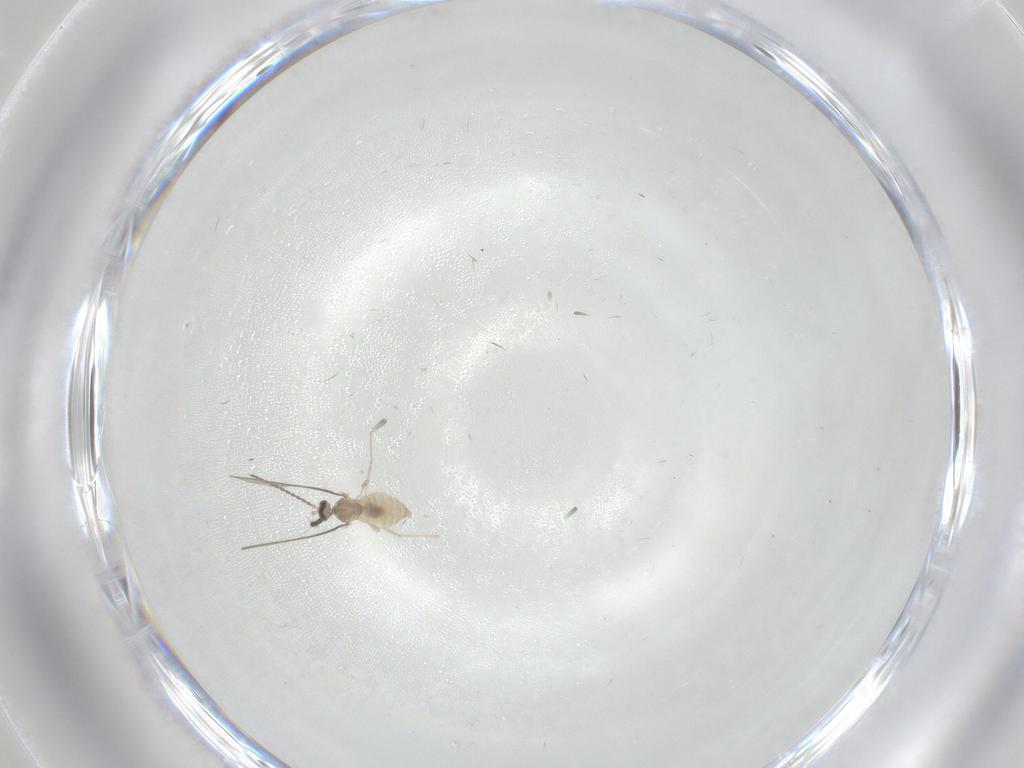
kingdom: Animalia
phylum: Arthropoda
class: Insecta
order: Diptera
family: Cecidomyiidae
